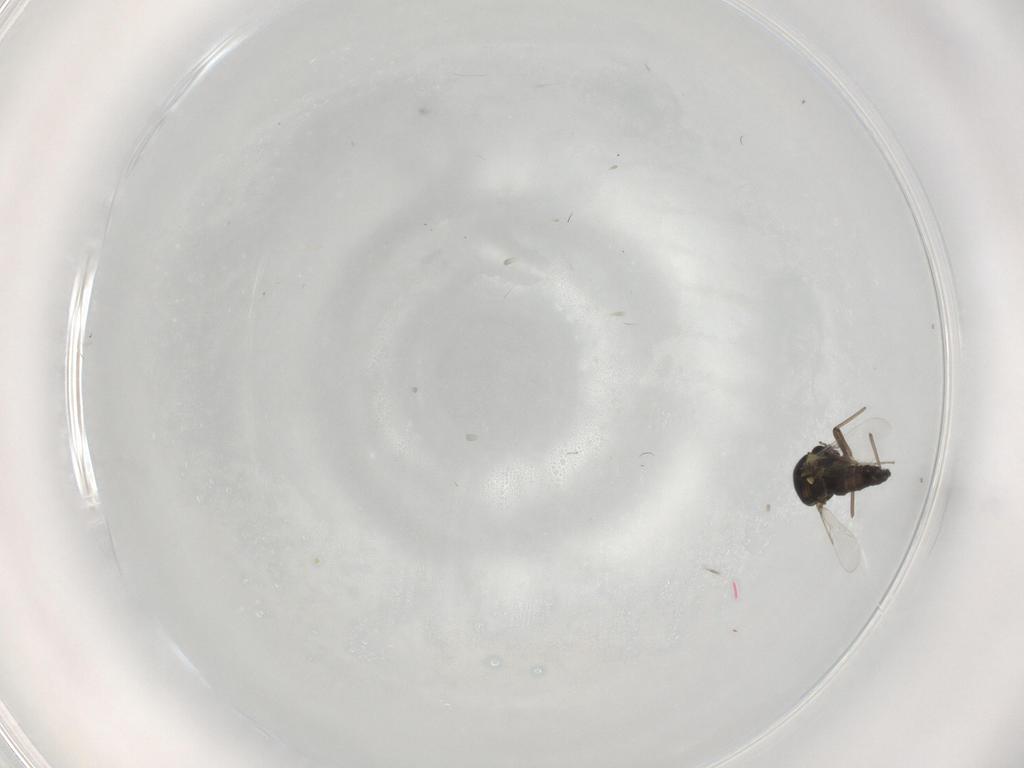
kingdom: Animalia
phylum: Arthropoda
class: Insecta
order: Diptera
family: Ceratopogonidae
